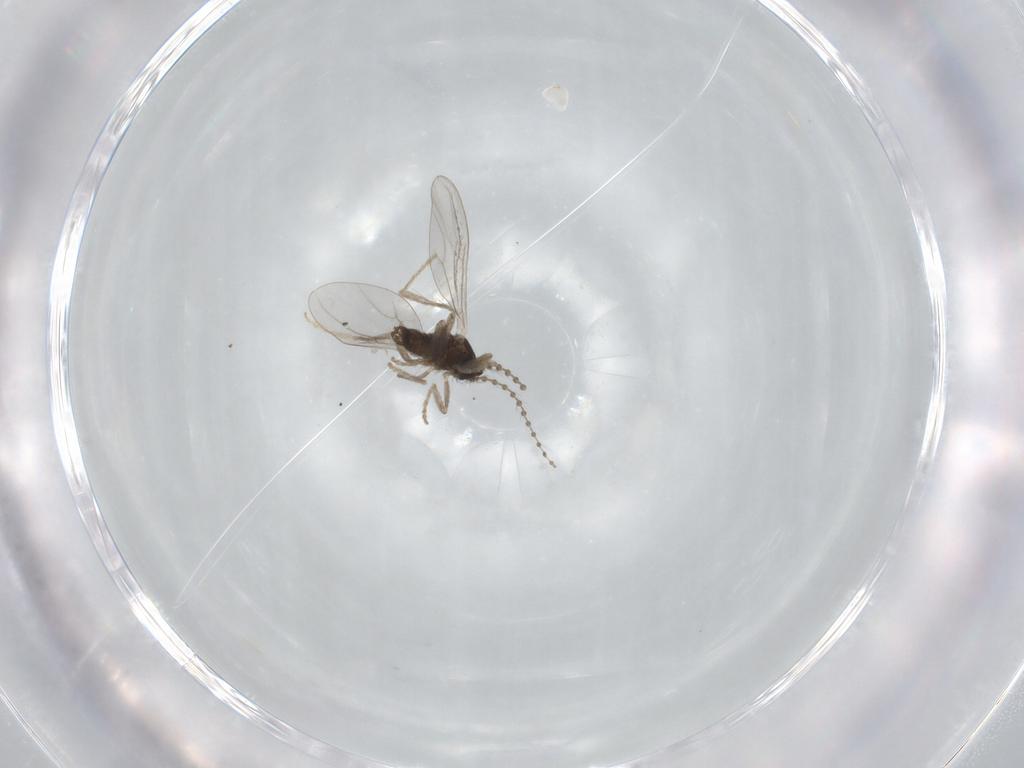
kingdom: Animalia
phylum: Arthropoda
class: Insecta
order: Diptera
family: Cecidomyiidae
